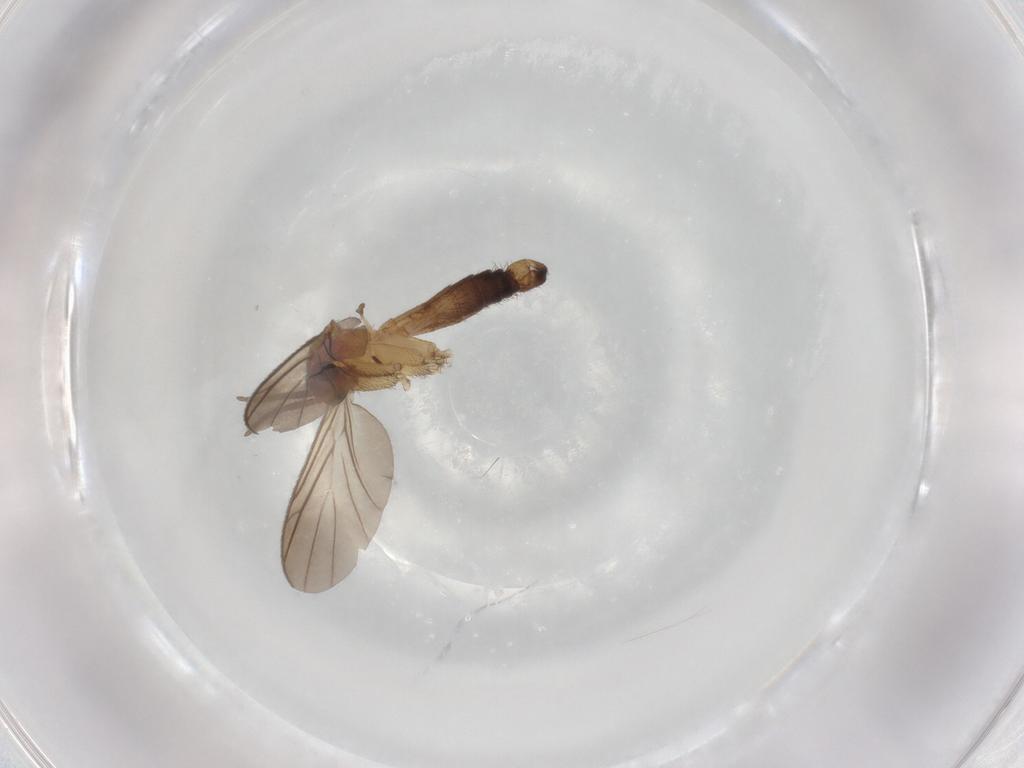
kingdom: Animalia
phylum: Arthropoda
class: Insecta
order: Diptera
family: Keroplatidae
